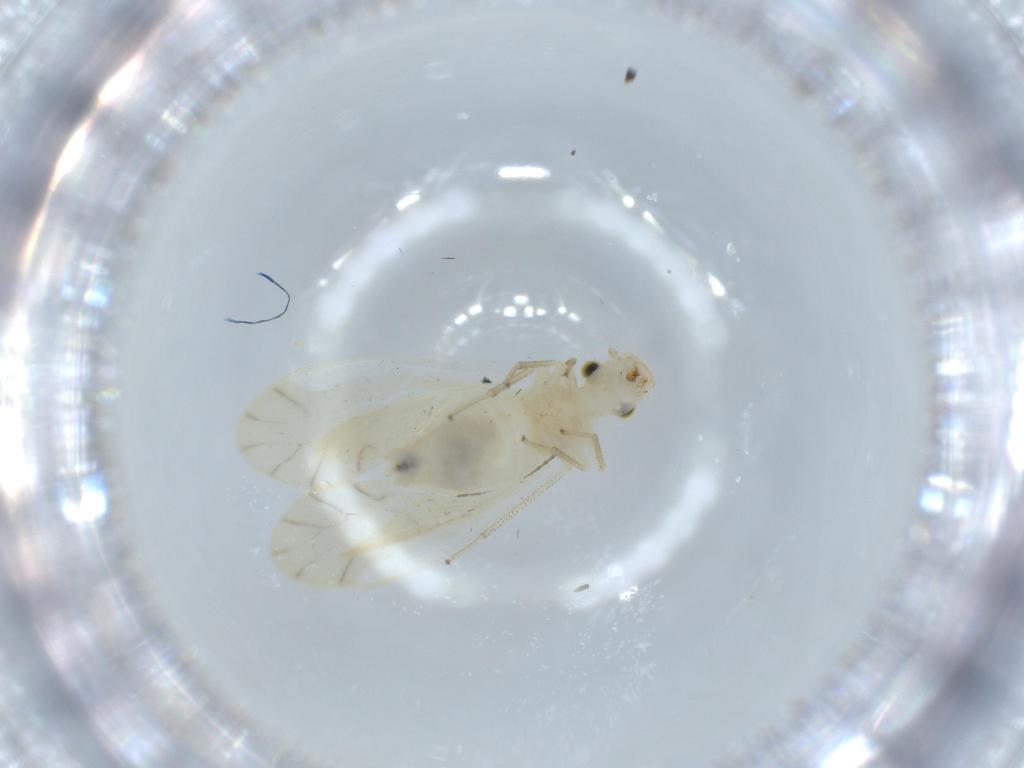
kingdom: Animalia
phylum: Arthropoda
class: Insecta
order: Psocodea
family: Caeciliusidae
